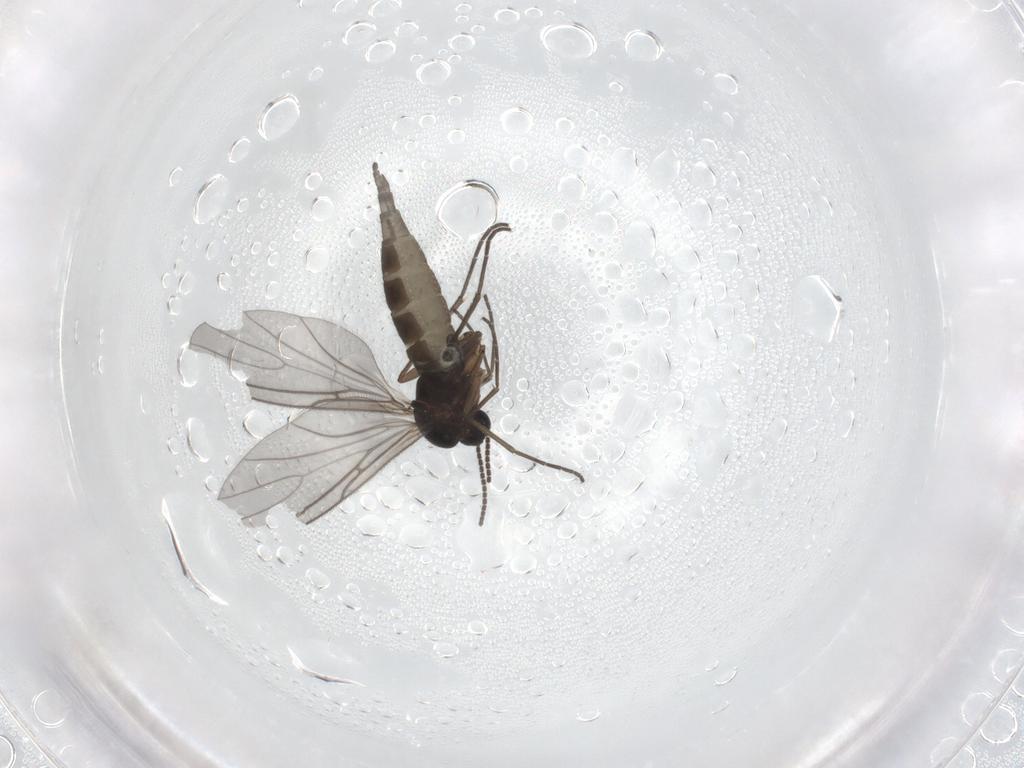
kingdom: Animalia
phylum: Arthropoda
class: Insecta
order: Diptera
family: Sciaridae
